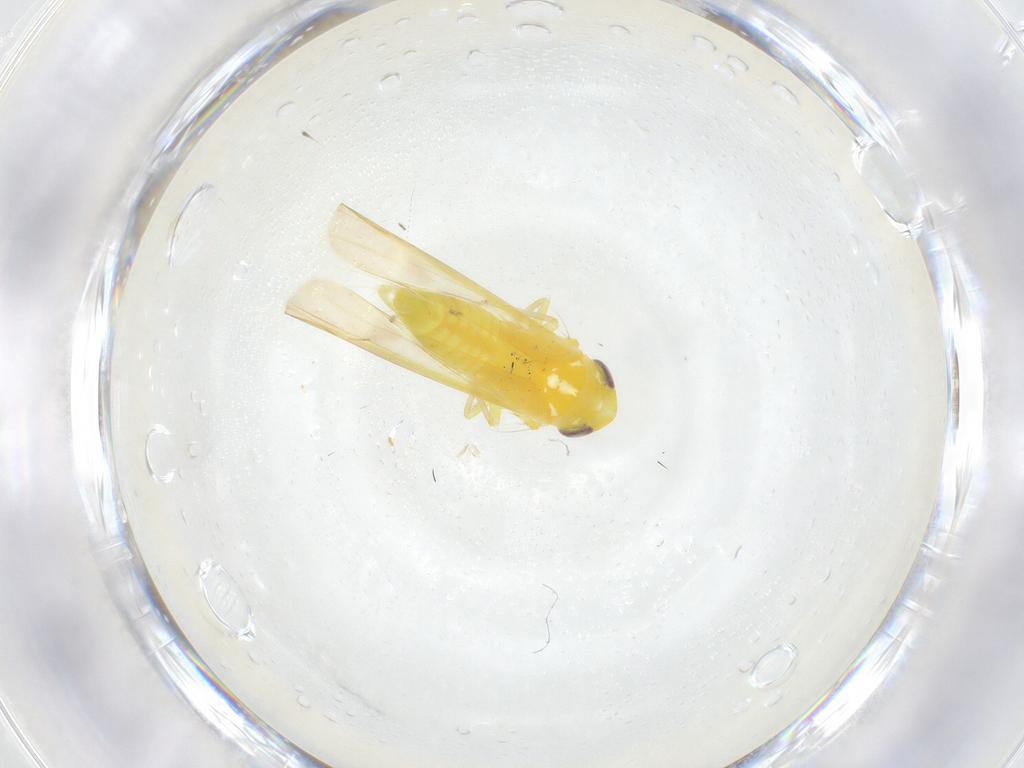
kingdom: Animalia
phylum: Arthropoda
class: Insecta
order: Hemiptera
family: Cicadellidae
